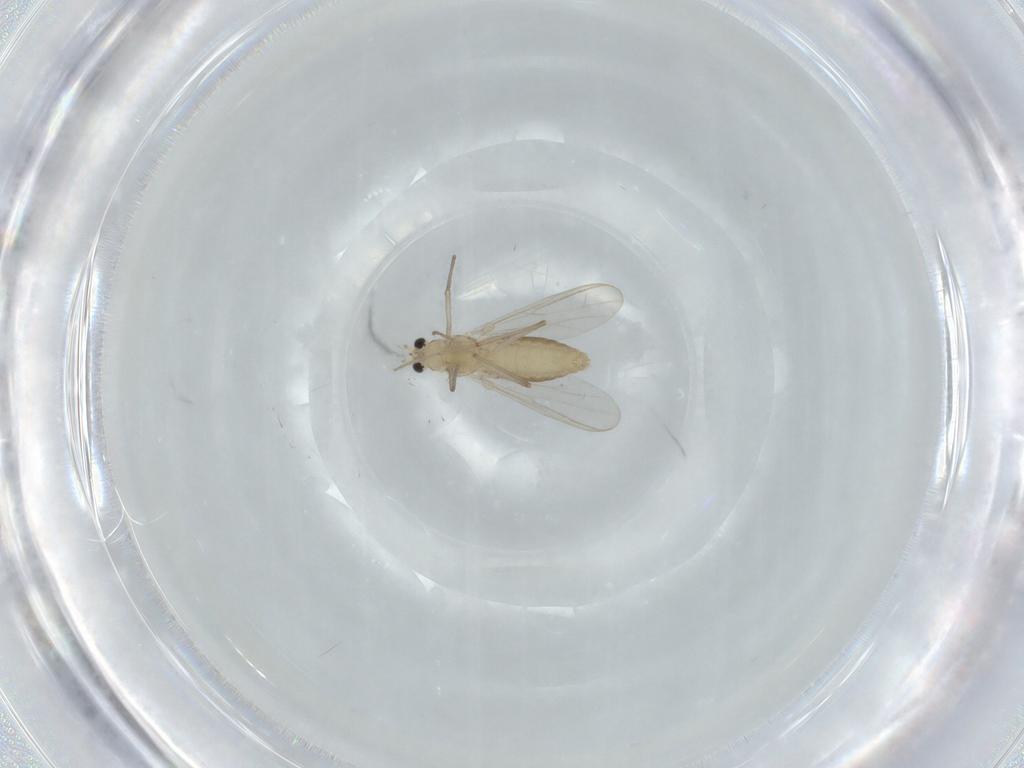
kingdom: Animalia
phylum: Arthropoda
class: Insecta
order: Diptera
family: Chironomidae
